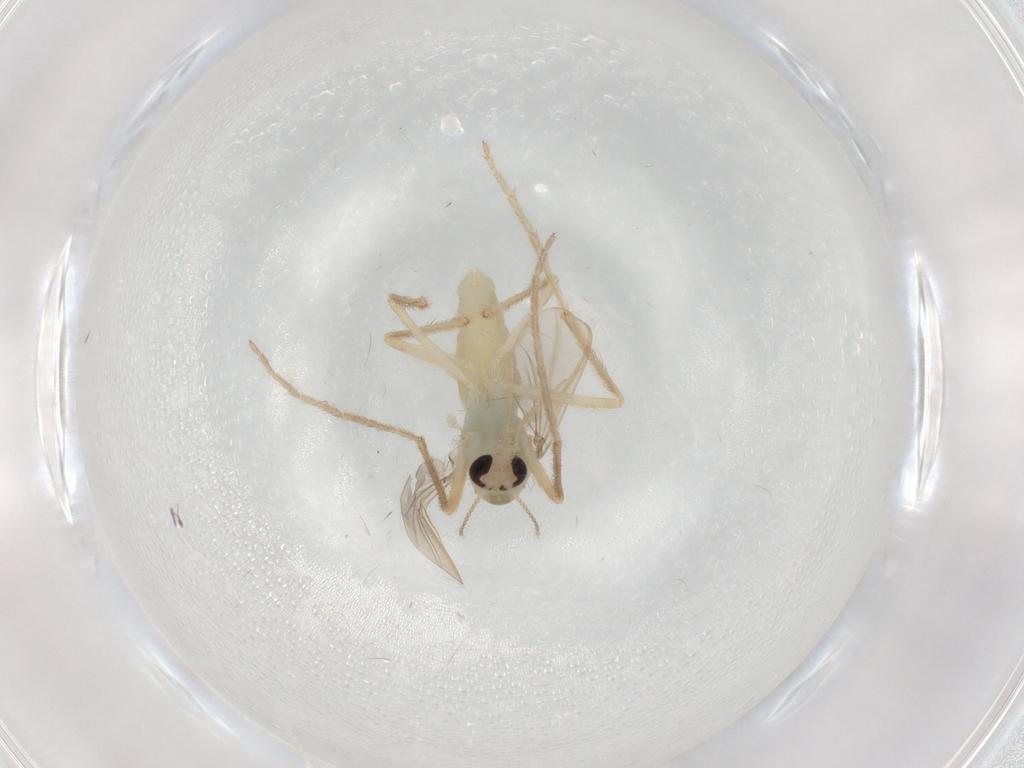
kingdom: Animalia
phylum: Arthropoda
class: Insecta
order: Diptera
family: Chironomidae
